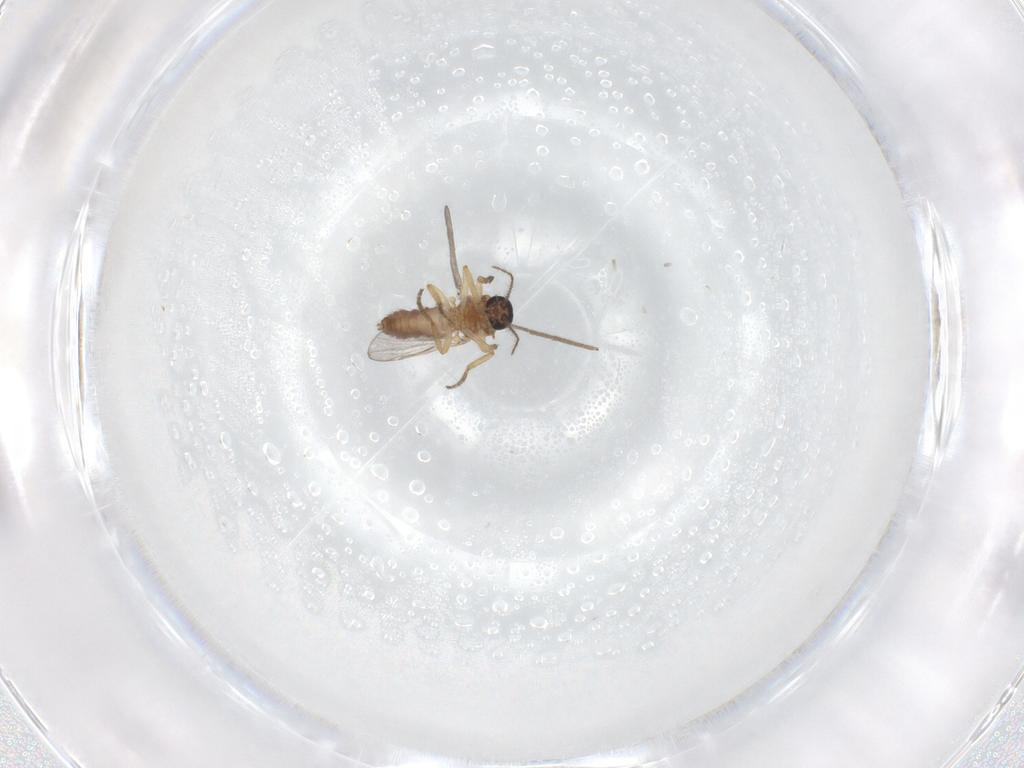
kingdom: Animalia
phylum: Arthropoda
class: Insecta
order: Diptera
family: Chironomidae
